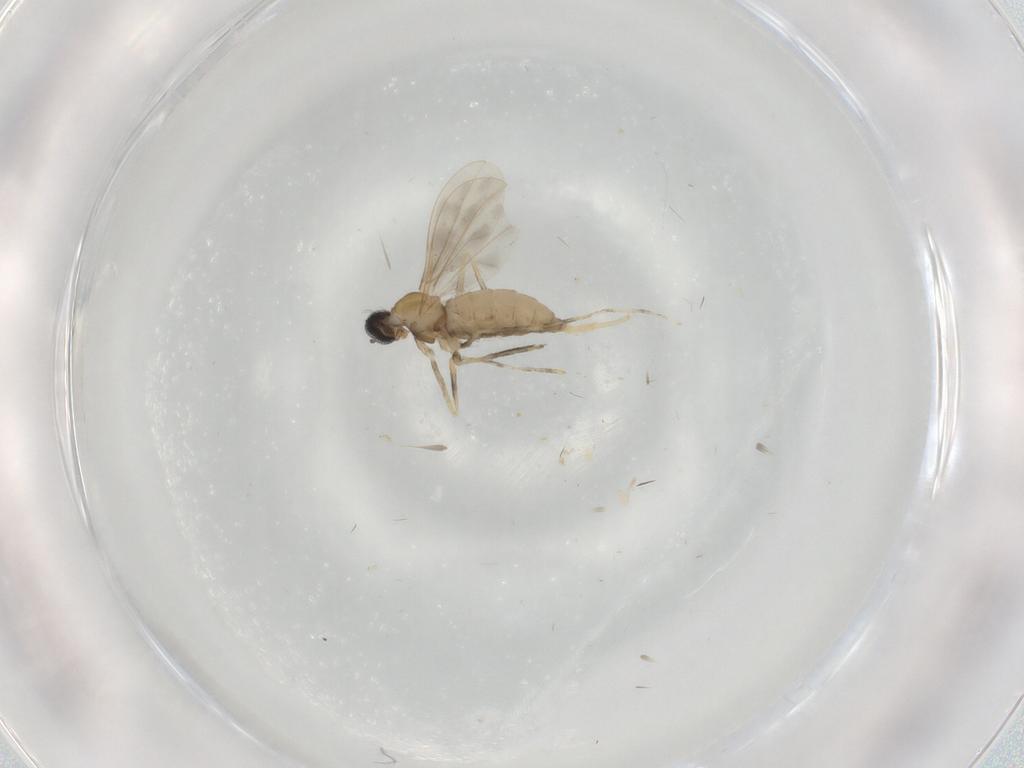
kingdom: Animalia
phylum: Arthropoda
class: Insecta
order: Diptera
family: Cecidomyiidae
